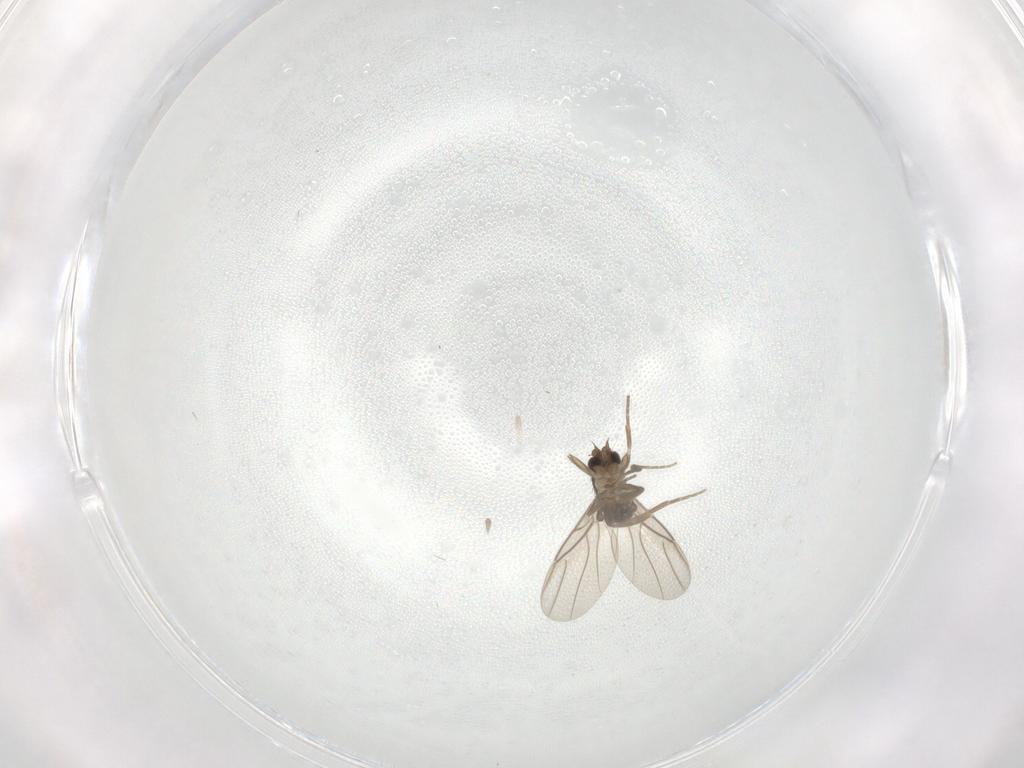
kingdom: Animalia
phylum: Arthropoda
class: Insecta
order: Diptera
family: Phoridae
